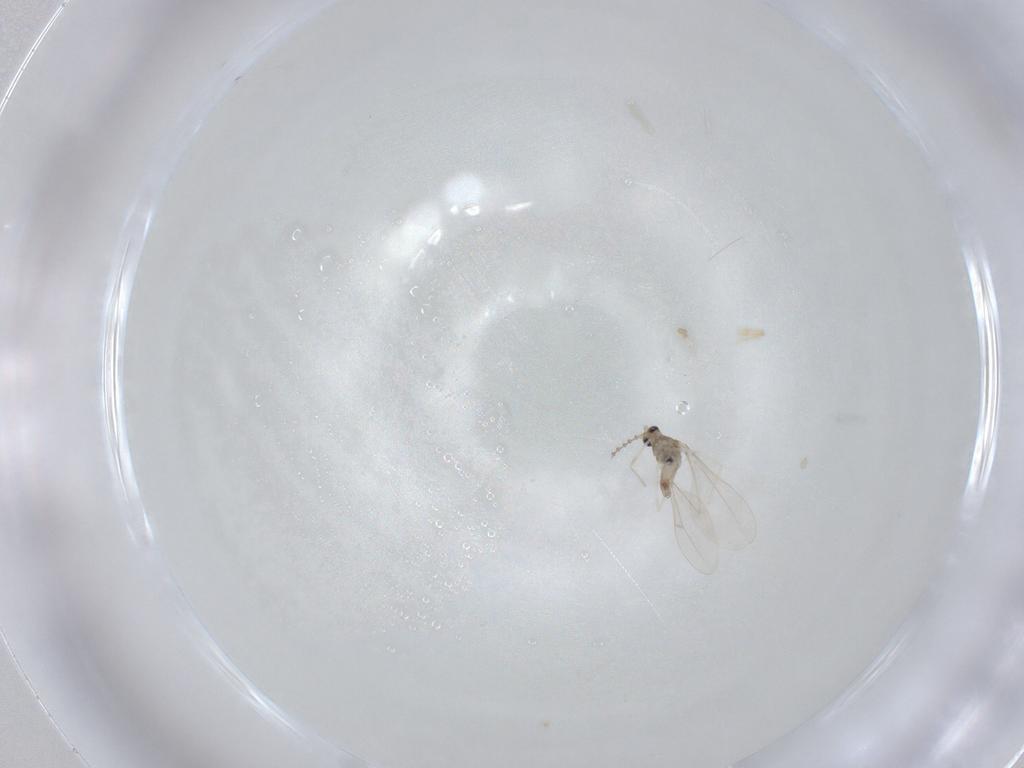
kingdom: Animalia
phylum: Arthropoda
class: Insecta
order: Diptera
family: Cecidomyiidae
